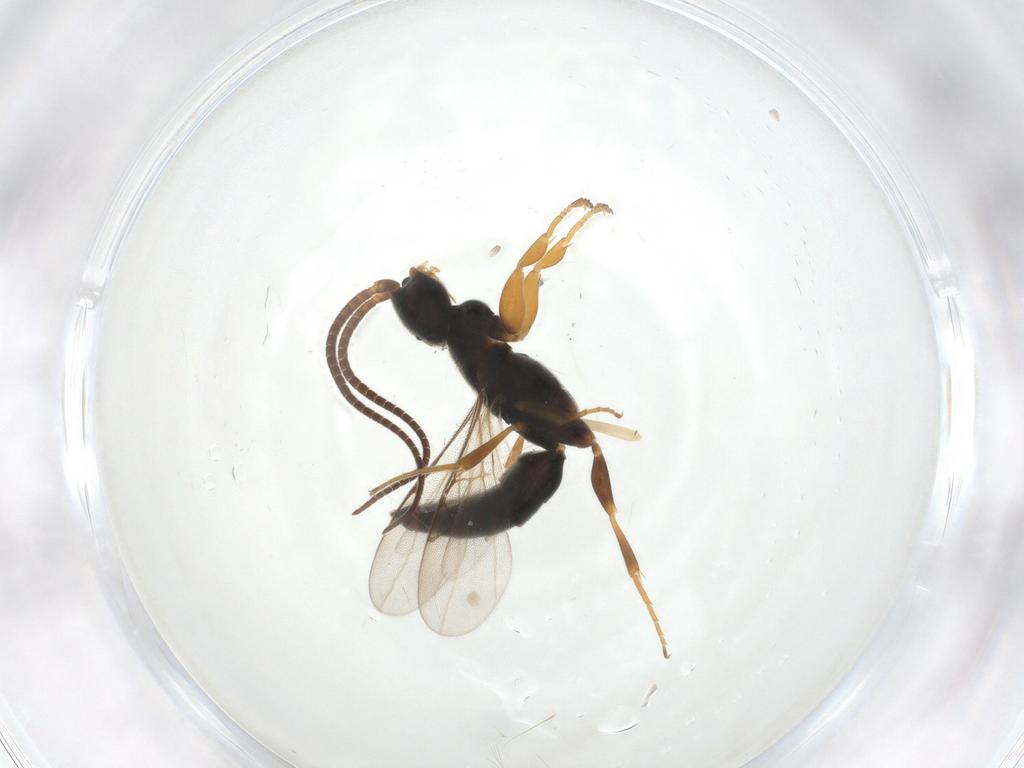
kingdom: Animalia
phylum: Arthropoda
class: Insecta
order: Hymenoptera
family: Sclerogibbidae
